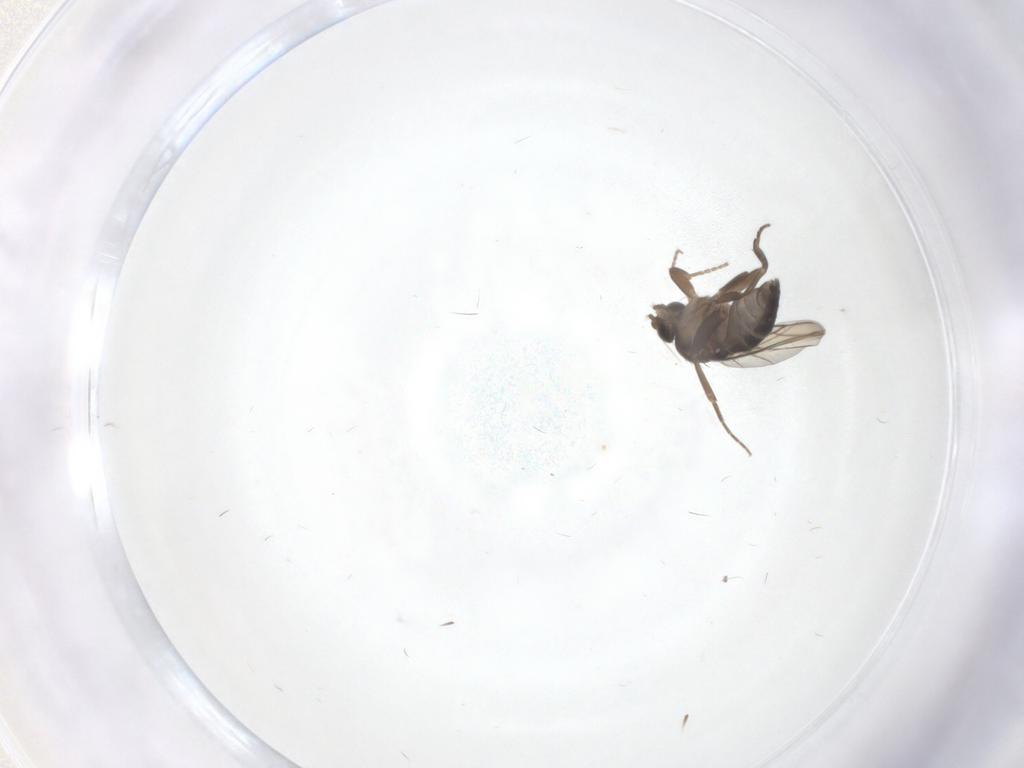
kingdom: Animalia
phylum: Arthropoda
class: Insecta
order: Diptera
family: Phoridae
